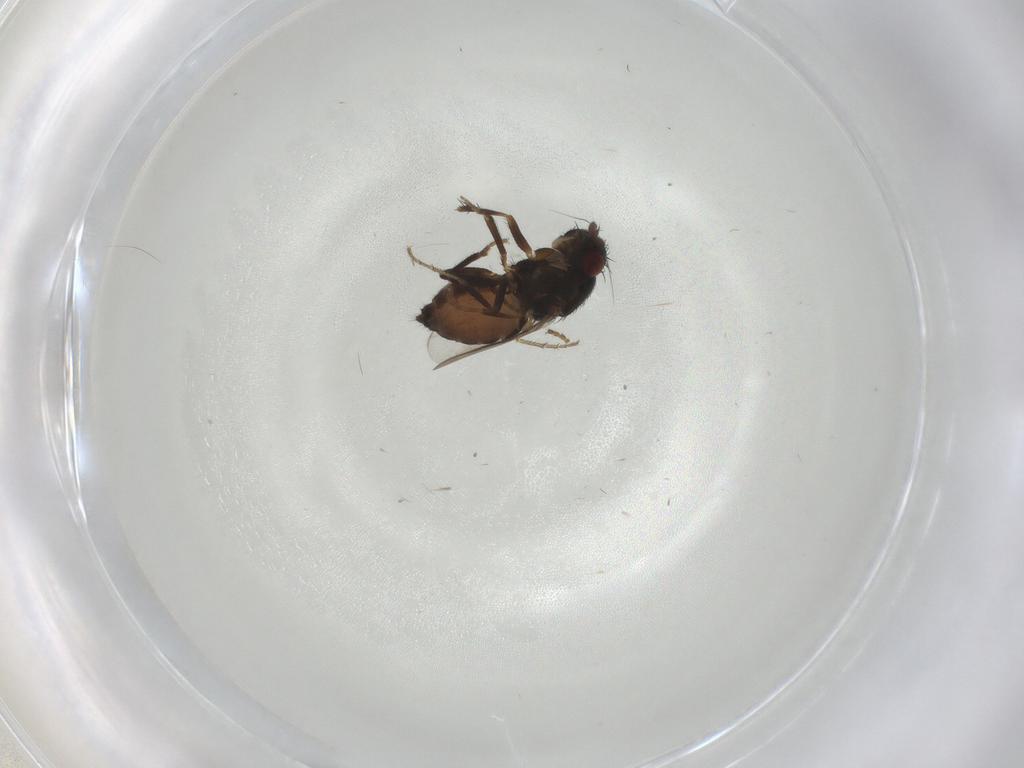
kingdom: Animalia
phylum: Arthropoda
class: Insecta
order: Diptera
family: Sphaeroceridae
